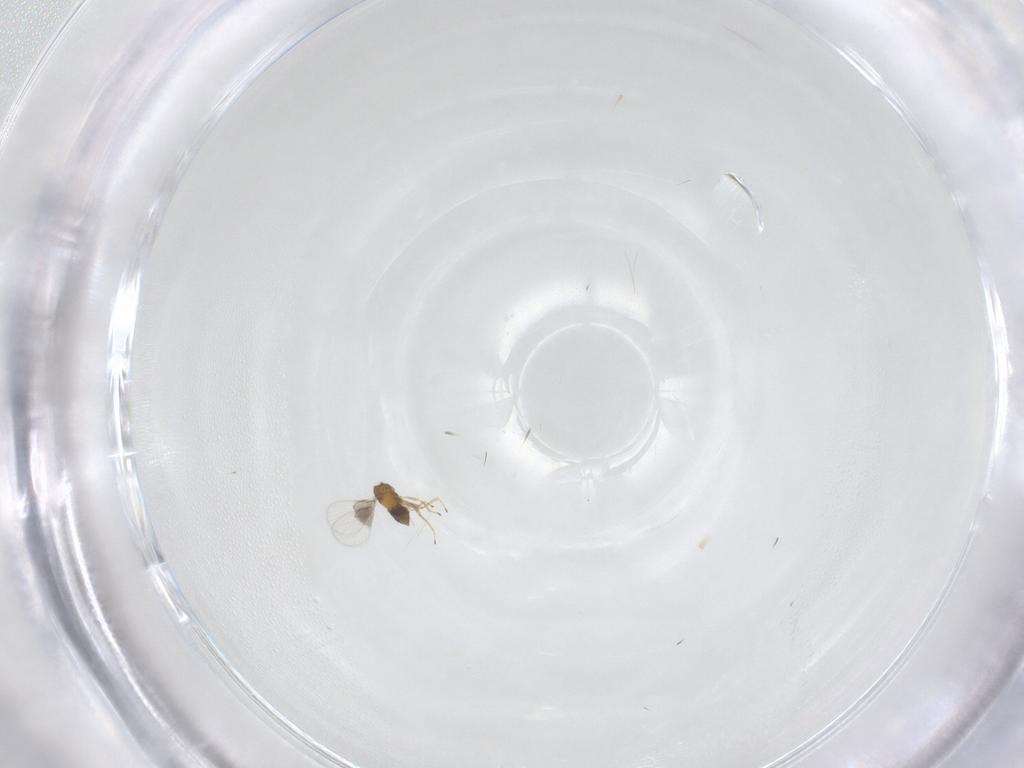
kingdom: Animalia
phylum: Arthropoda
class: Insecta
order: Hymenoptera
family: Trichogrammatidae
